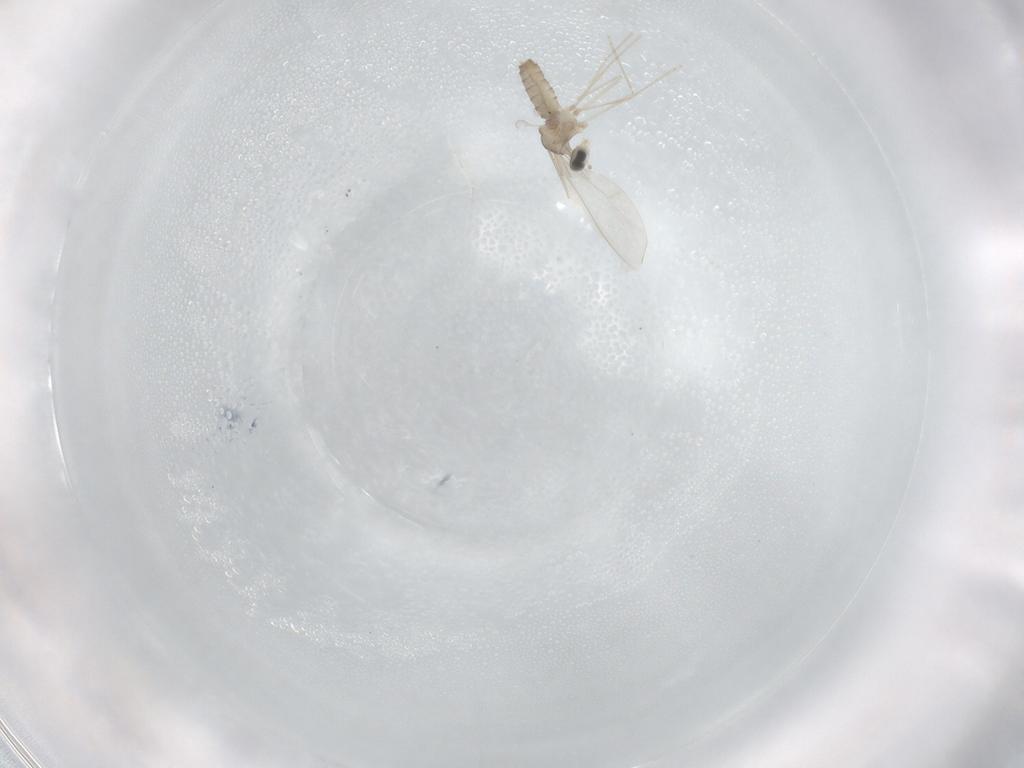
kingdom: Animalia
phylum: Arthropoda
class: Insecta
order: Diptera
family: Cecidomyiidae
